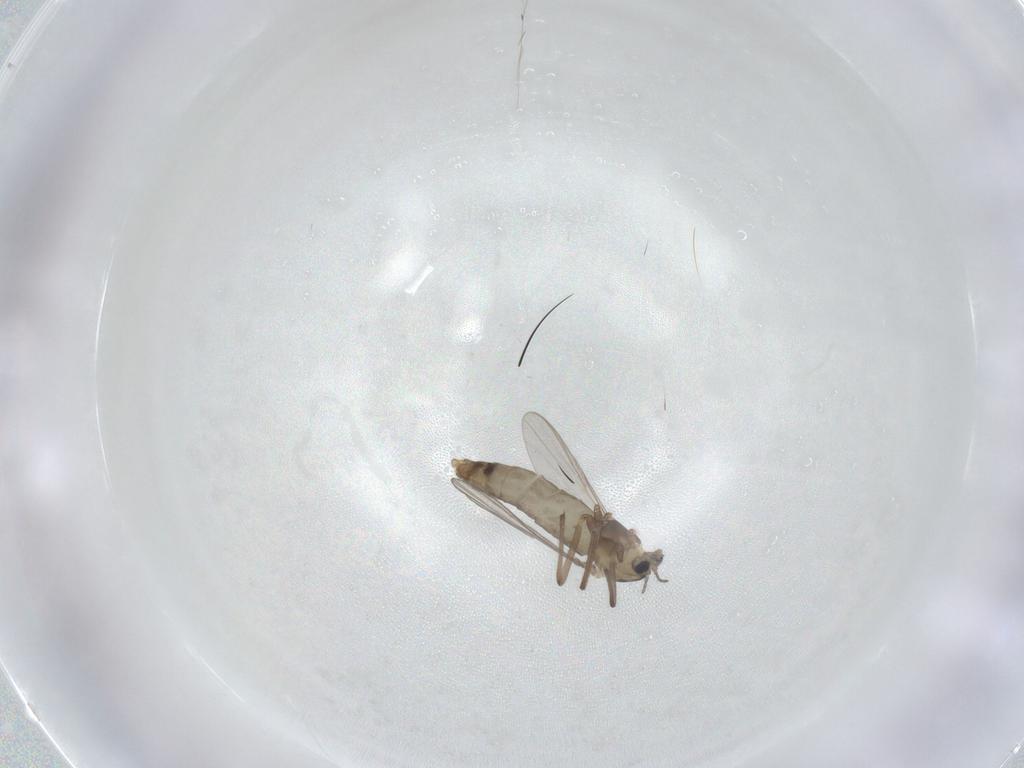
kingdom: Animalia
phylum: Arthropoda
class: Insecta
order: Diptera
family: Chironomidae
